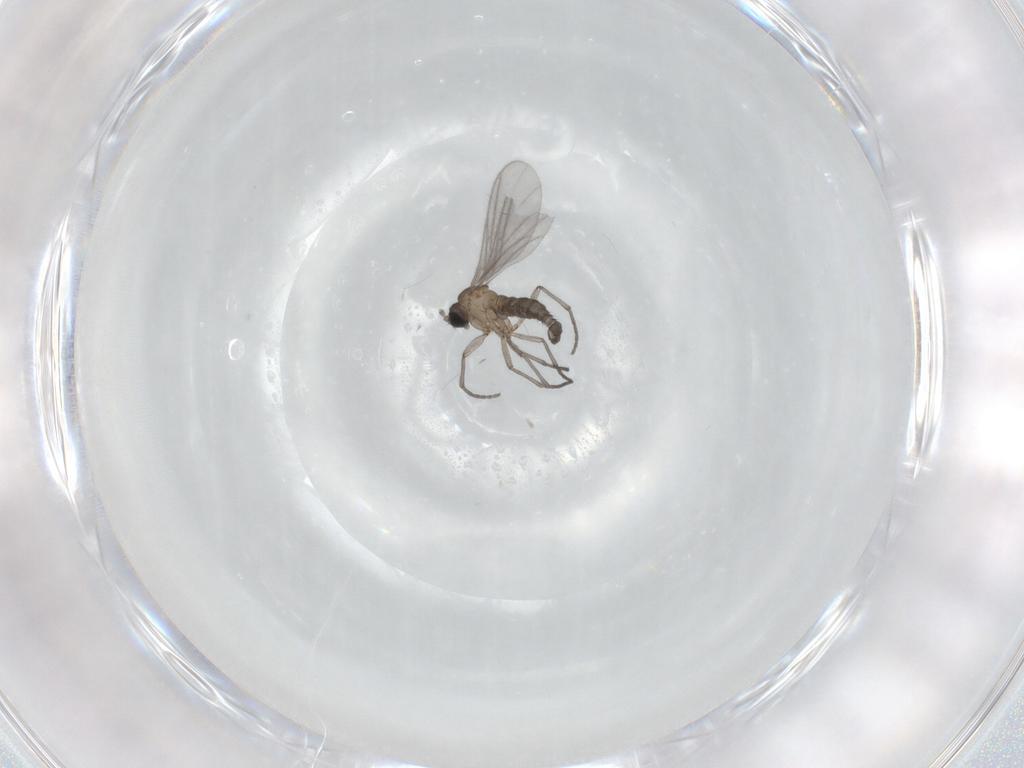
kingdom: Animalia
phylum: Arthropoda
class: Insecta
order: Diptera
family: Sciaridae
